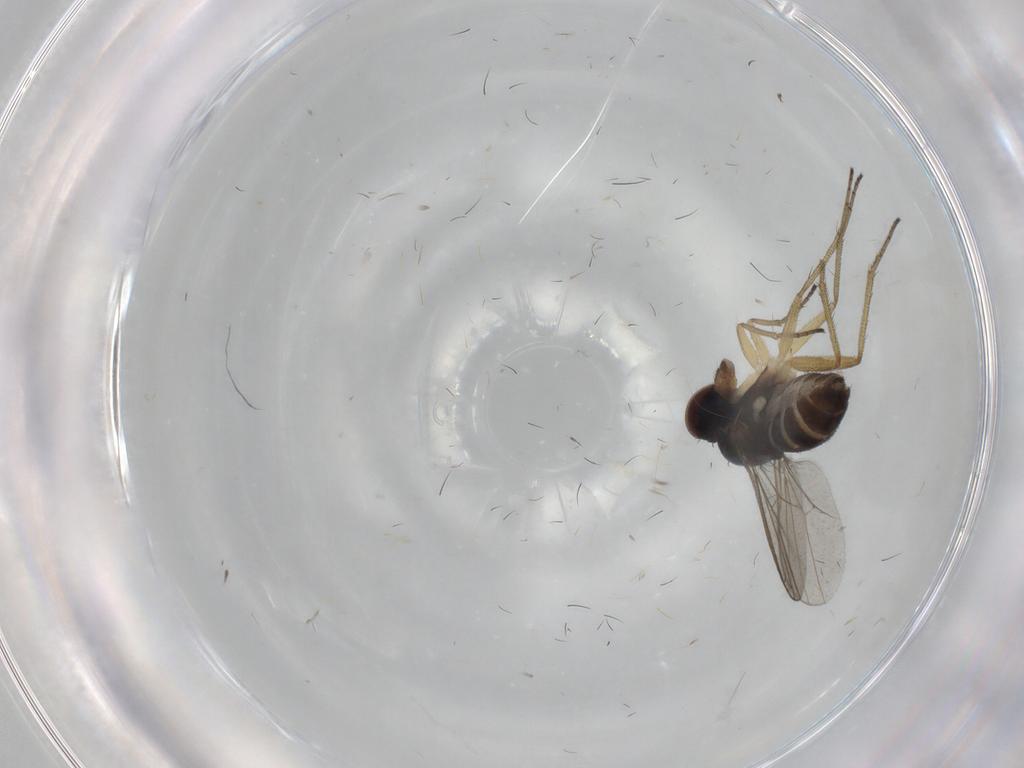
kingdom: Animalia
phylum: Arthropoda
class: Insecta
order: Diptera
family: Dolichopodidae
